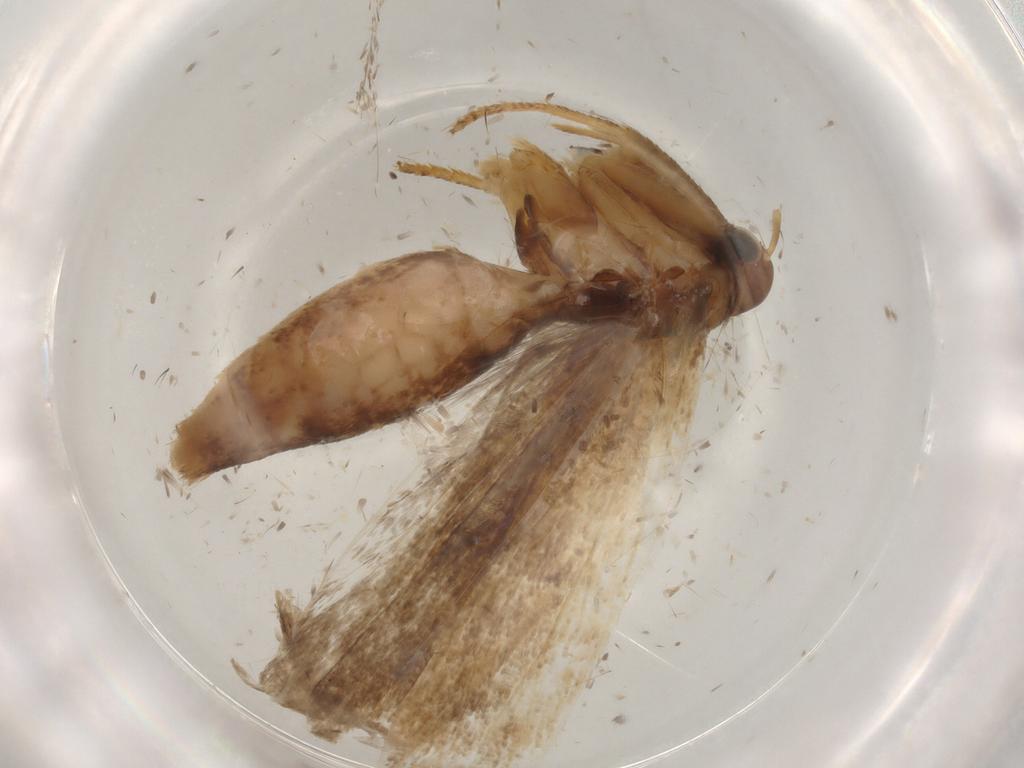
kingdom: Animalia
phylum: Arthropoda
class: Insecta
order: Lepidoptera
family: Gelechiidae
